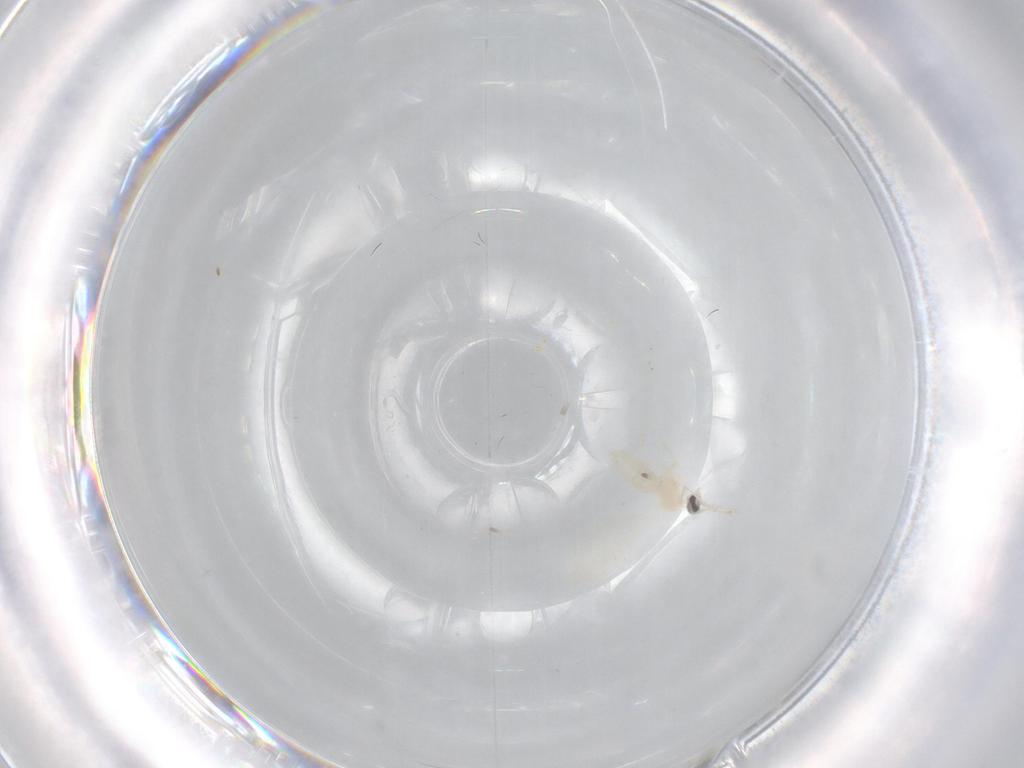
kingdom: Animalia
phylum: Arthropoda
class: Insecta
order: Diptera
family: Cecidomyiidae
